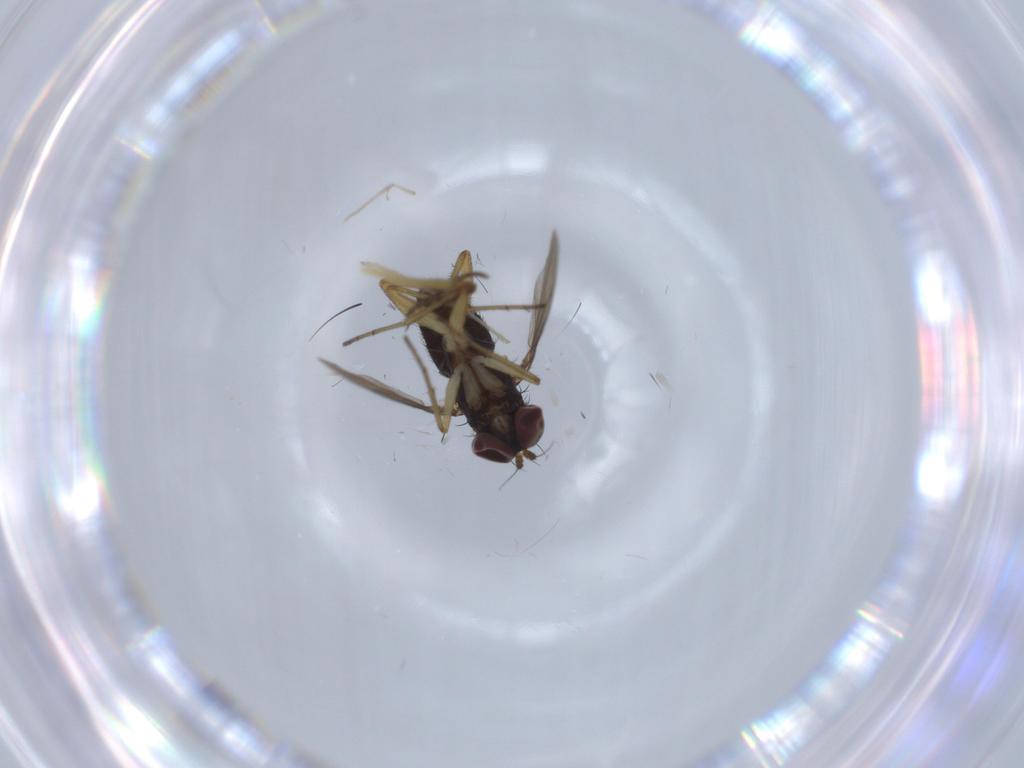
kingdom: Animalia
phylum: Arthropoda
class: Insecta
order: Diptera
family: Dolichopodidae
